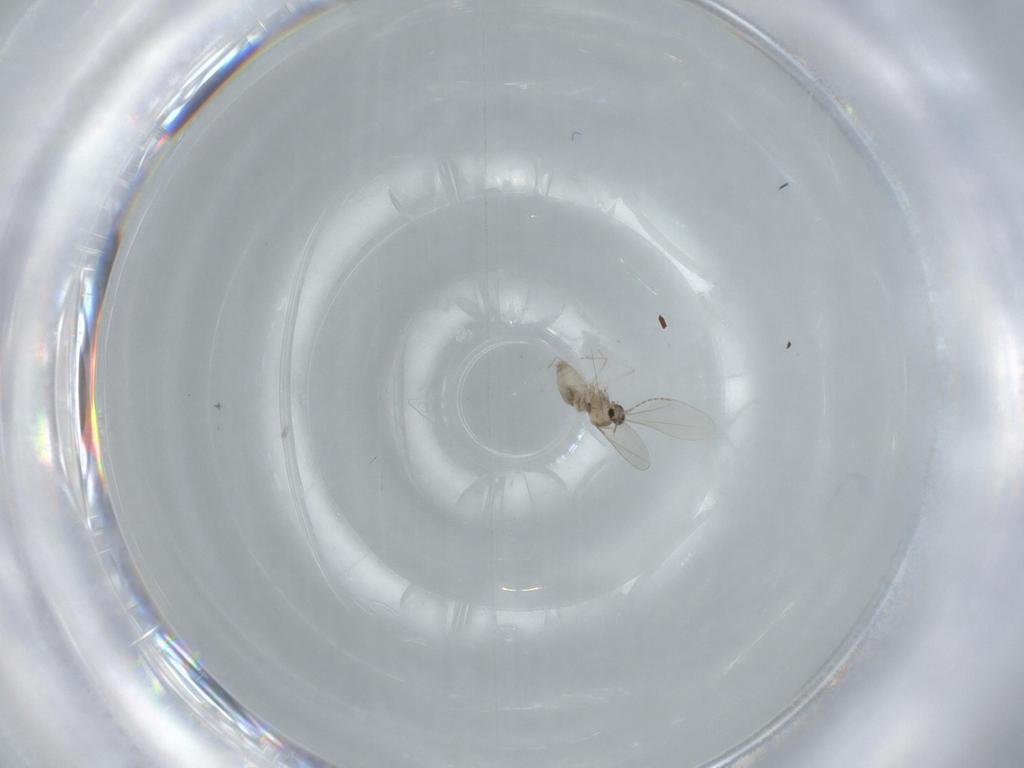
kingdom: Animalia
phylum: Arthropoda
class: Insecta
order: Diptera
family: Cecidomyiidae
